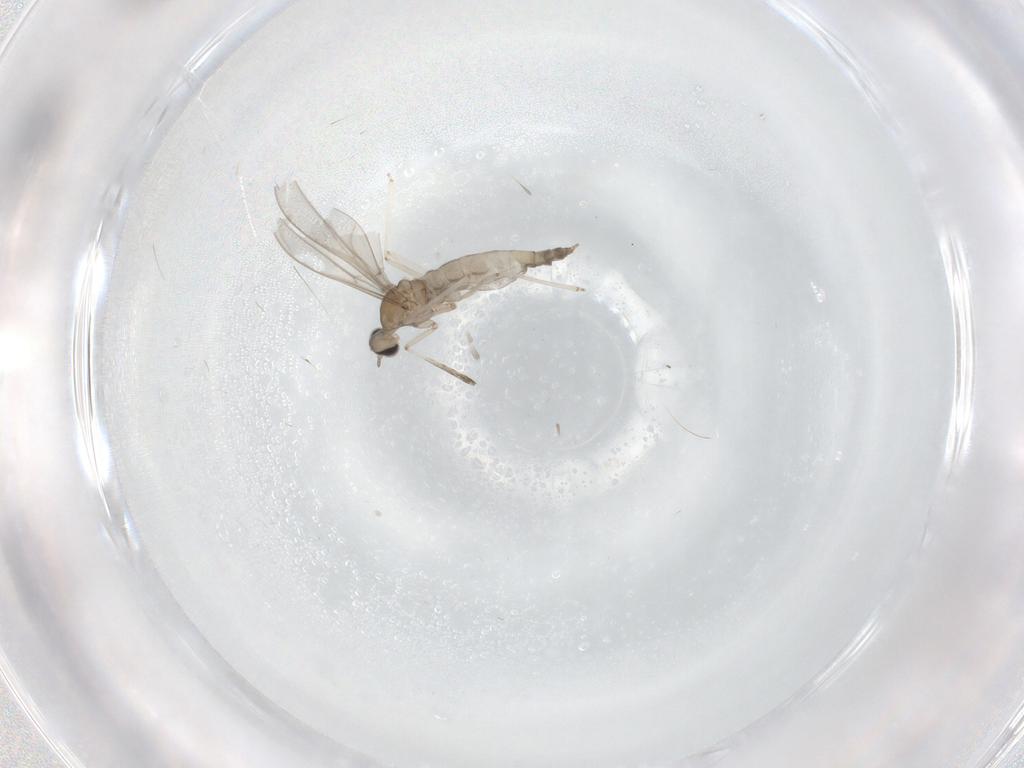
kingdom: Animalia
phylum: Arthropoda
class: Insecta
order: Diptera
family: Cecidomyiidae
